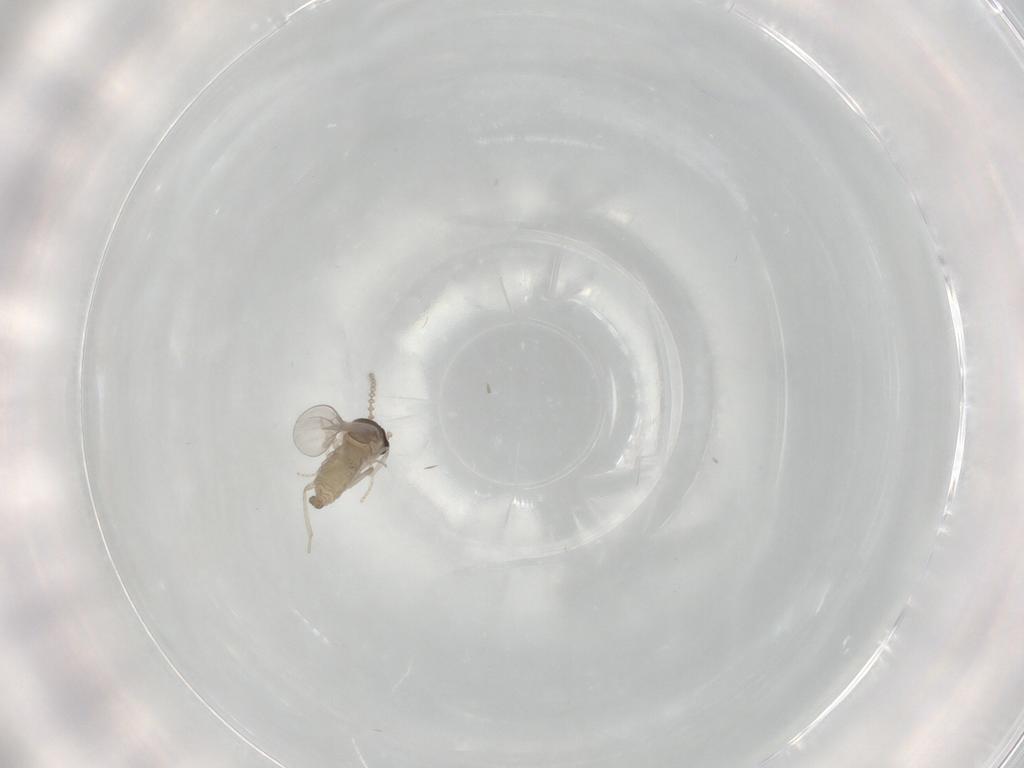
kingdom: Animalia
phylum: Arthropoda
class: Insecta
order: Diptera
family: Cecidomyiidae
